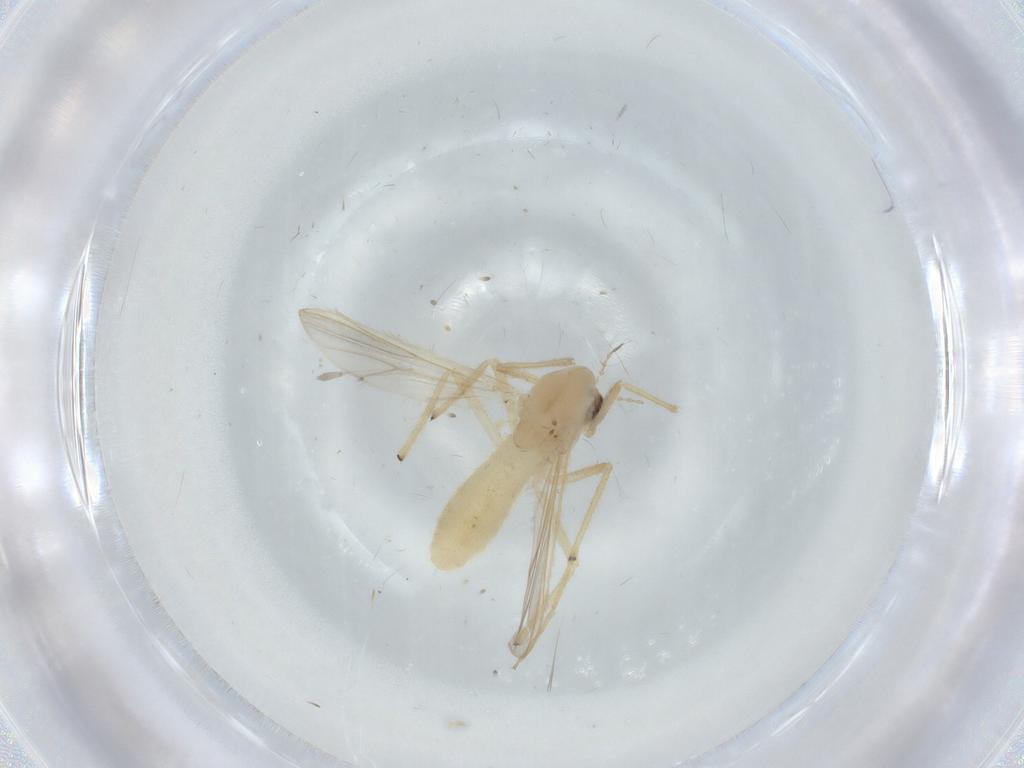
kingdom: Animalia
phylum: Arthropoda
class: Insecta
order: Diptera
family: Chironomidae
